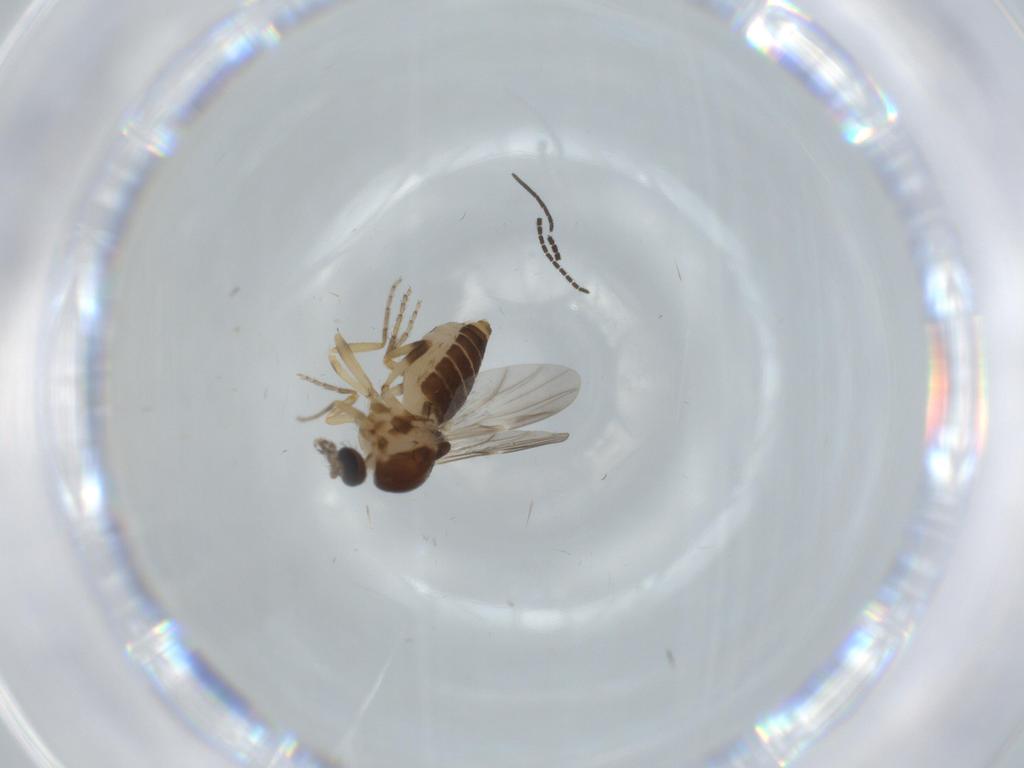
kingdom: Animalia
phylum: Arthropoda
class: Insecta
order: Diptera
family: Ceratopogonidae
